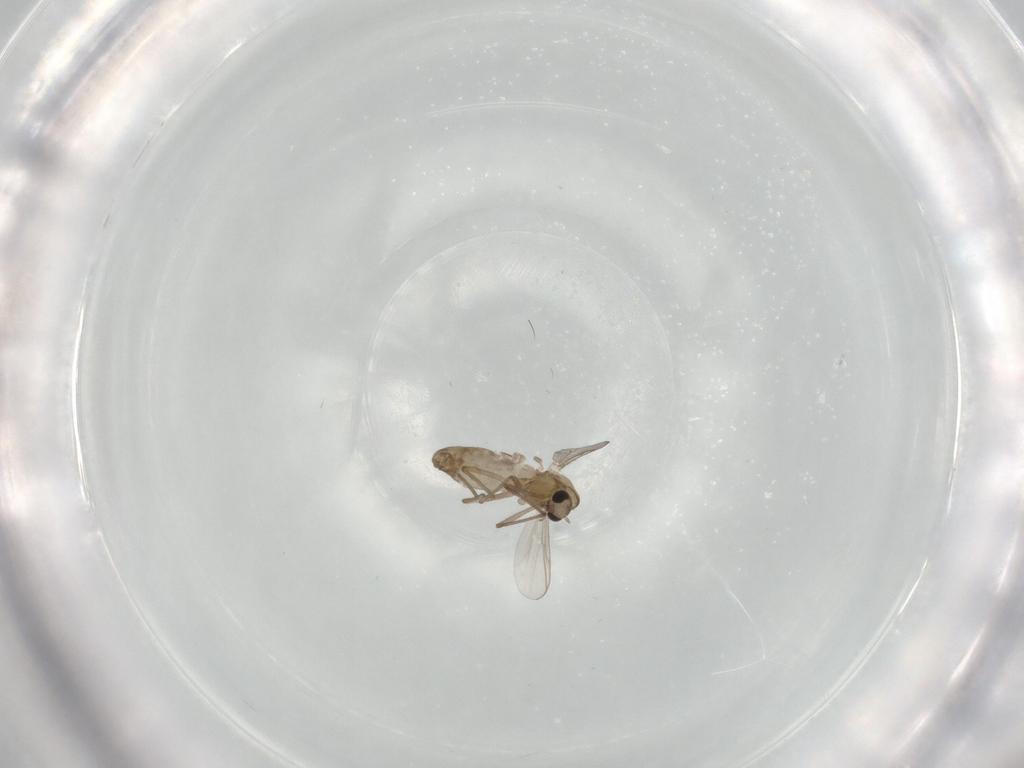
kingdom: Animalia
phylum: Arthropoda
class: Insecta
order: Diptera
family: Chironomidae
